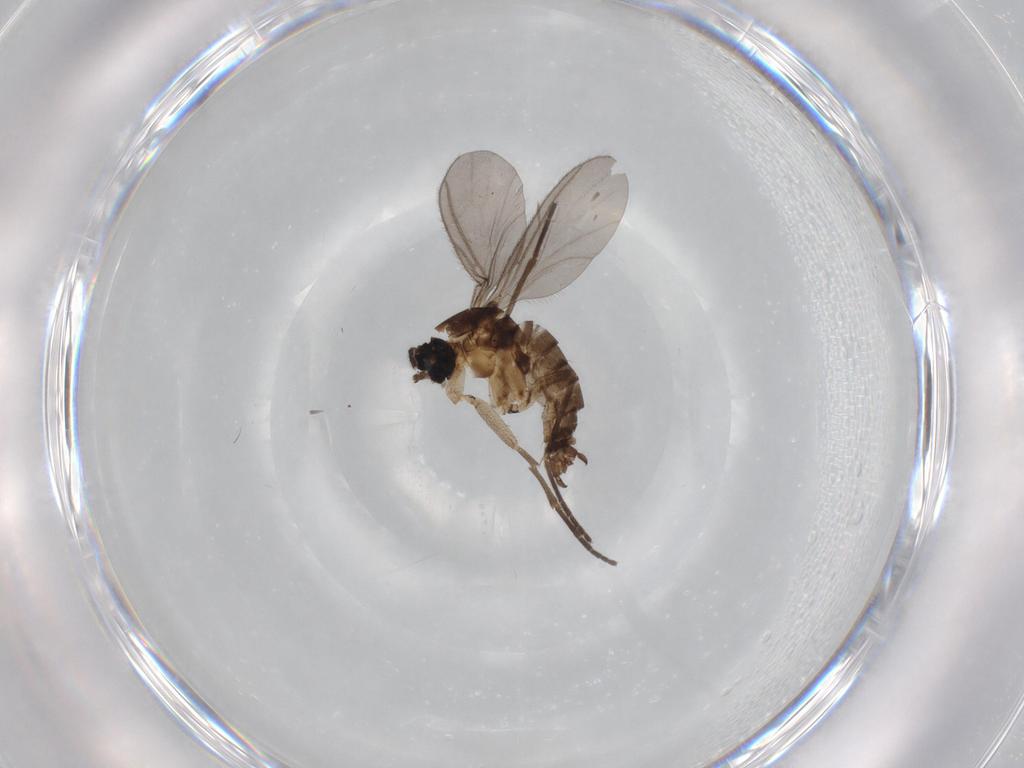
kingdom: Animalia
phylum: Arthropoda
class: Insecta
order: Diptera
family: Sciaridae
